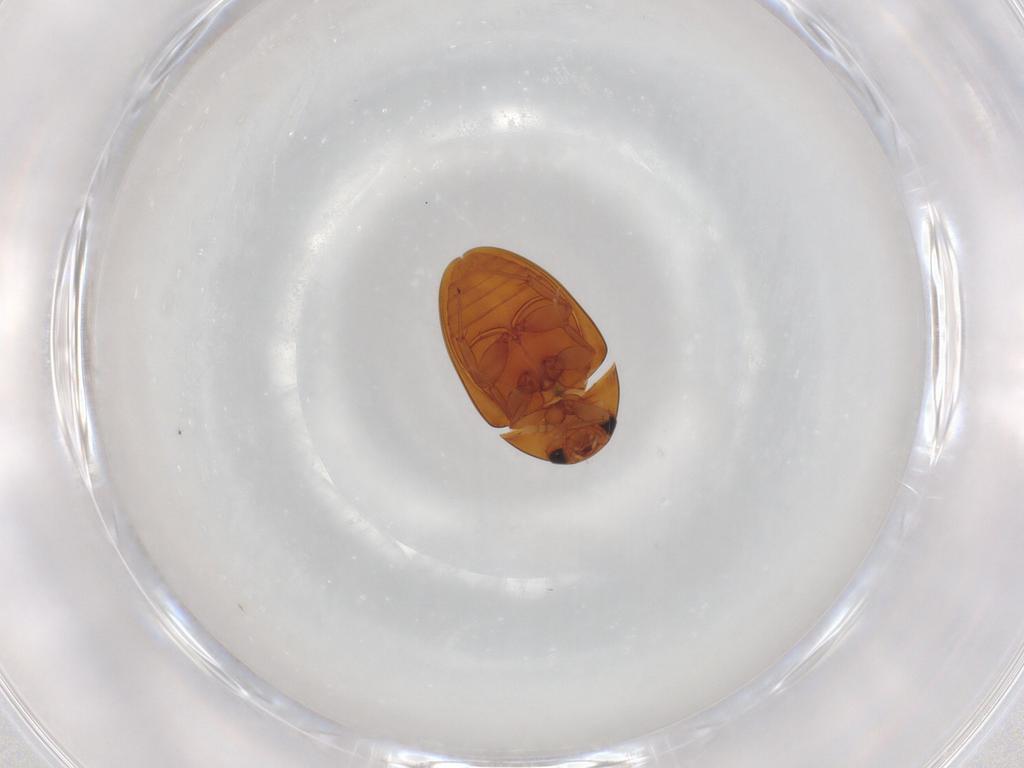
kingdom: Animalia
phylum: Arthropoda
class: Insecta
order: Coleoptera
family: Phalacridae
